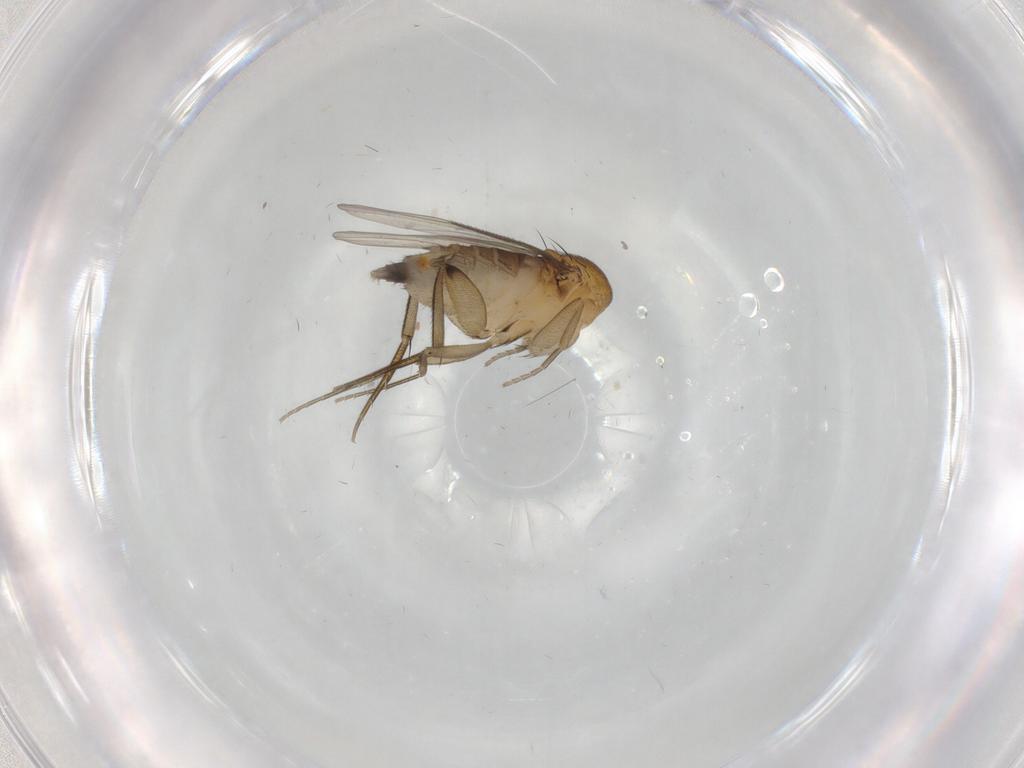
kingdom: Animalia
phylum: Arthropoda
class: Insecta
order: Diptera
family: Phoridae
